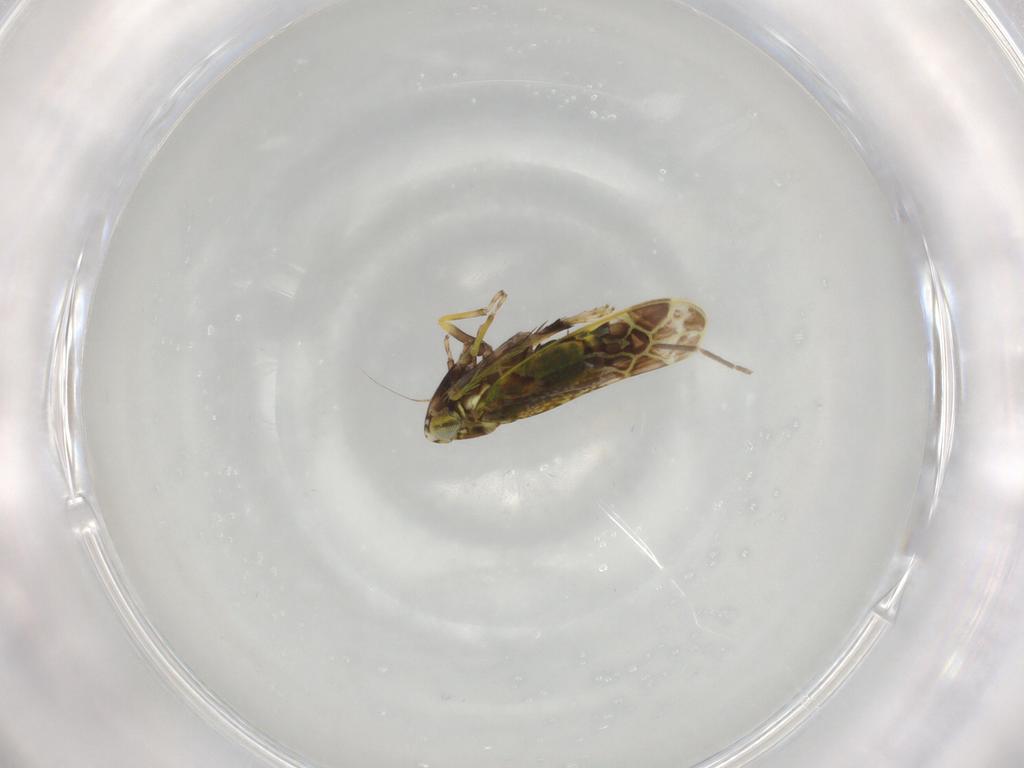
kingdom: Animalia
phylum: Arthropoda
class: Insecta
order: Hemiptera
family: Cicadellidae
